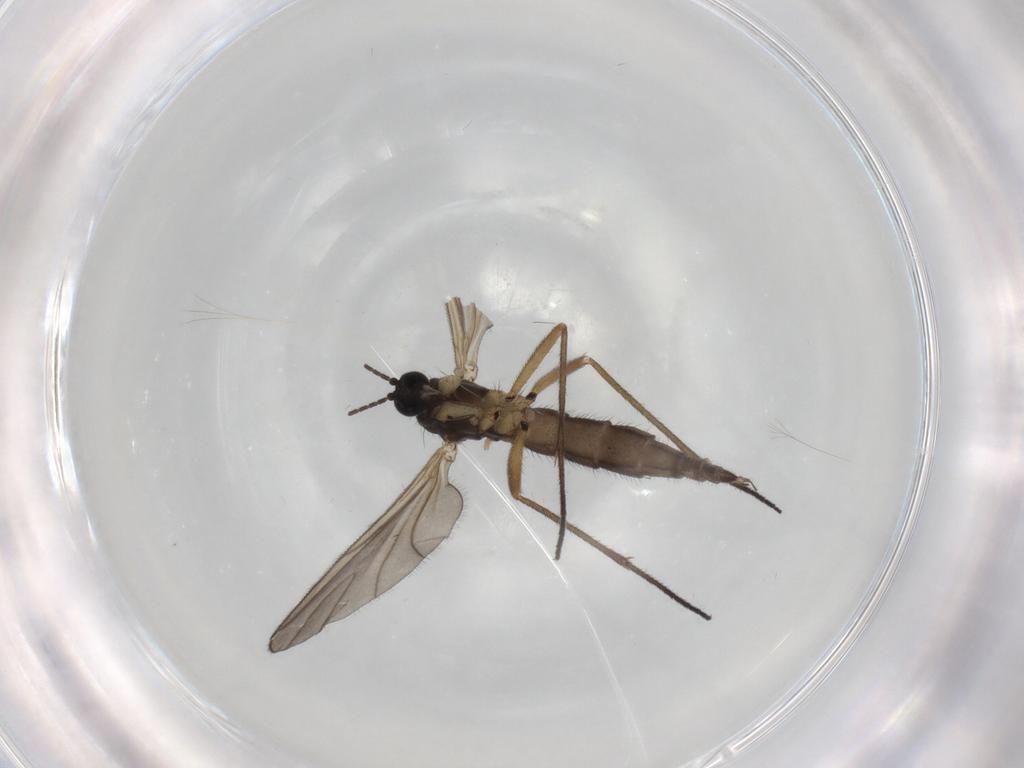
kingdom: Animalia
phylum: Arthropoda
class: Insecta
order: Diptera
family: Sciaridae
